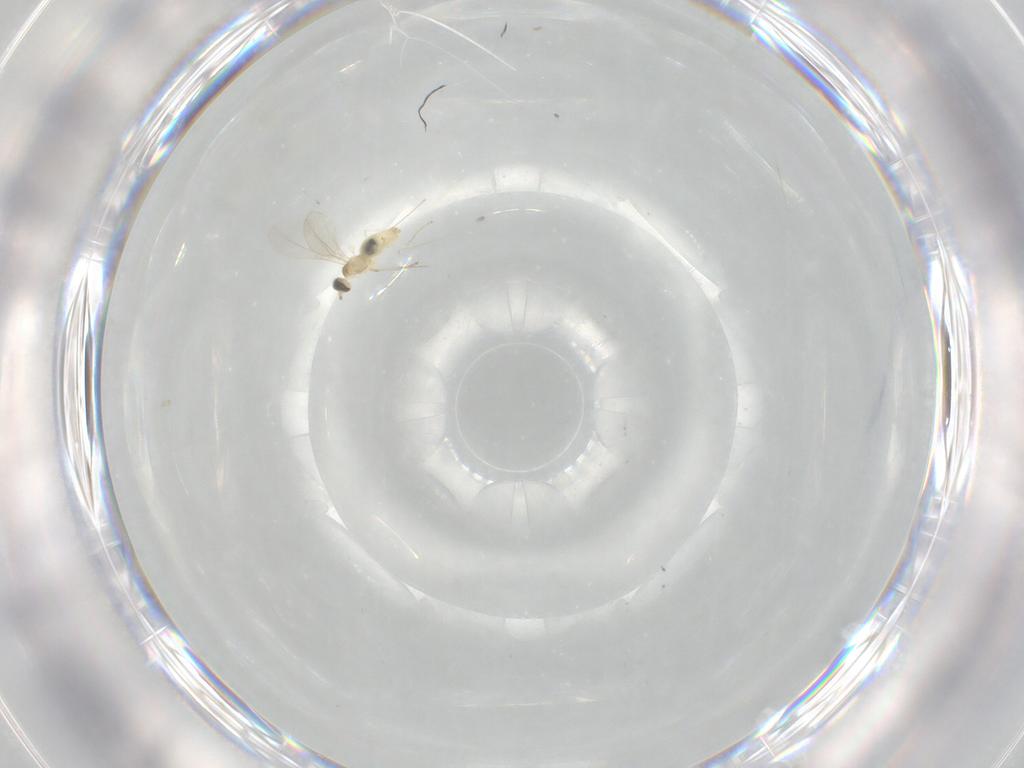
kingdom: Animalia
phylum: Arthropoda
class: Insecta
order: Diptera
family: Cecidomyiidae
